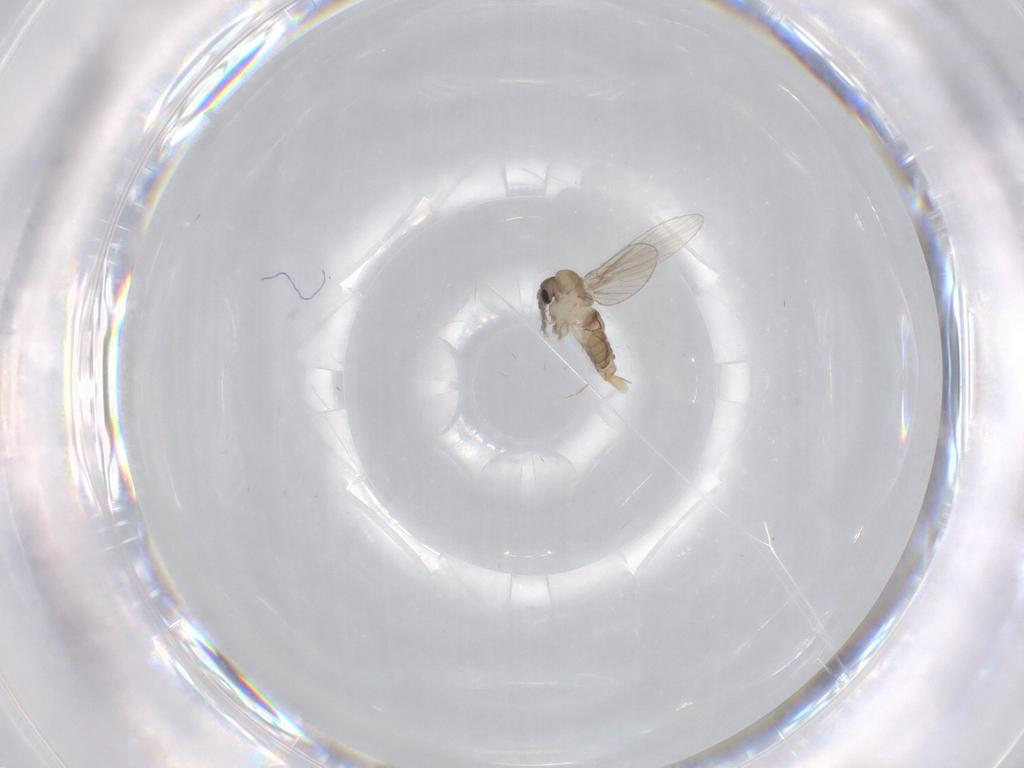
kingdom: Animalia
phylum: Arthropoda
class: Insecta
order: Diptera
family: Psychodidae
